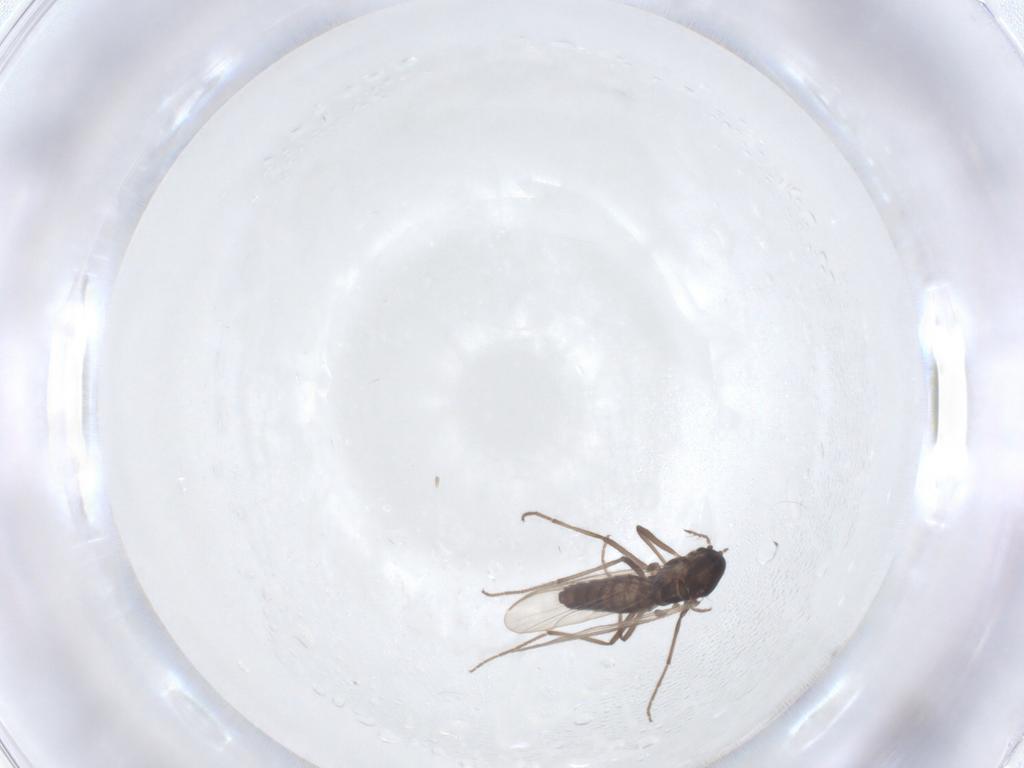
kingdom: Animalia
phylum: Arthropoda
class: Insecta
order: Diptera
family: Chironomidae
